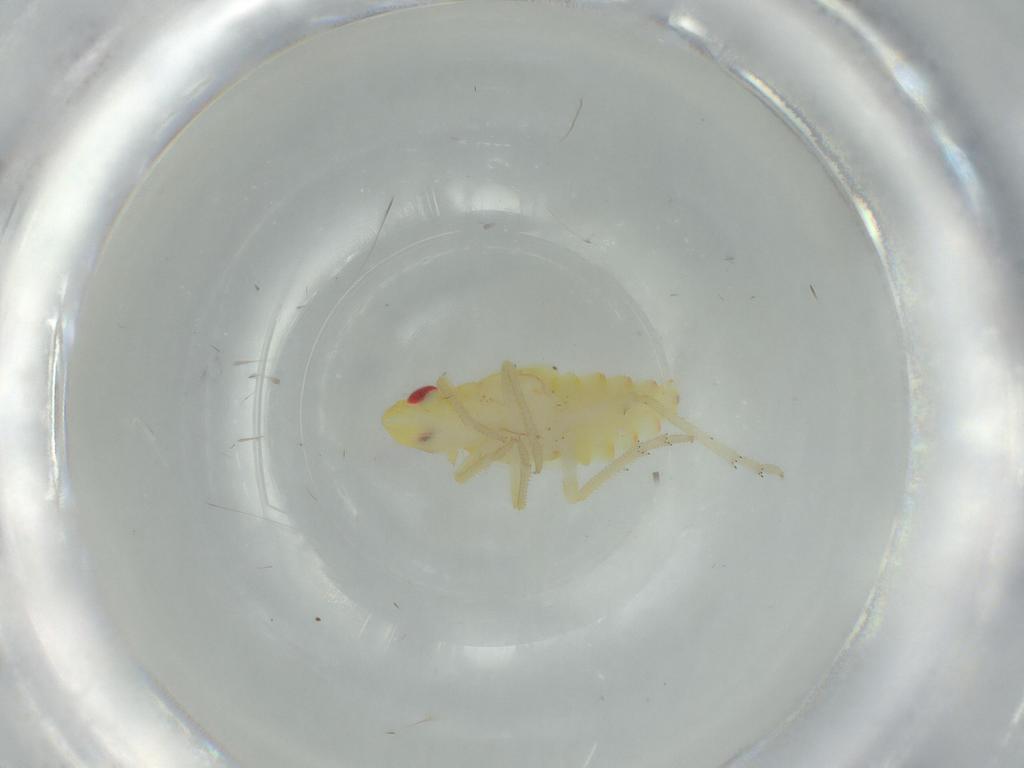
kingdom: Animalia
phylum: Arthropoda
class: Insecta
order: Hemiptera
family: Tropiduchidae
